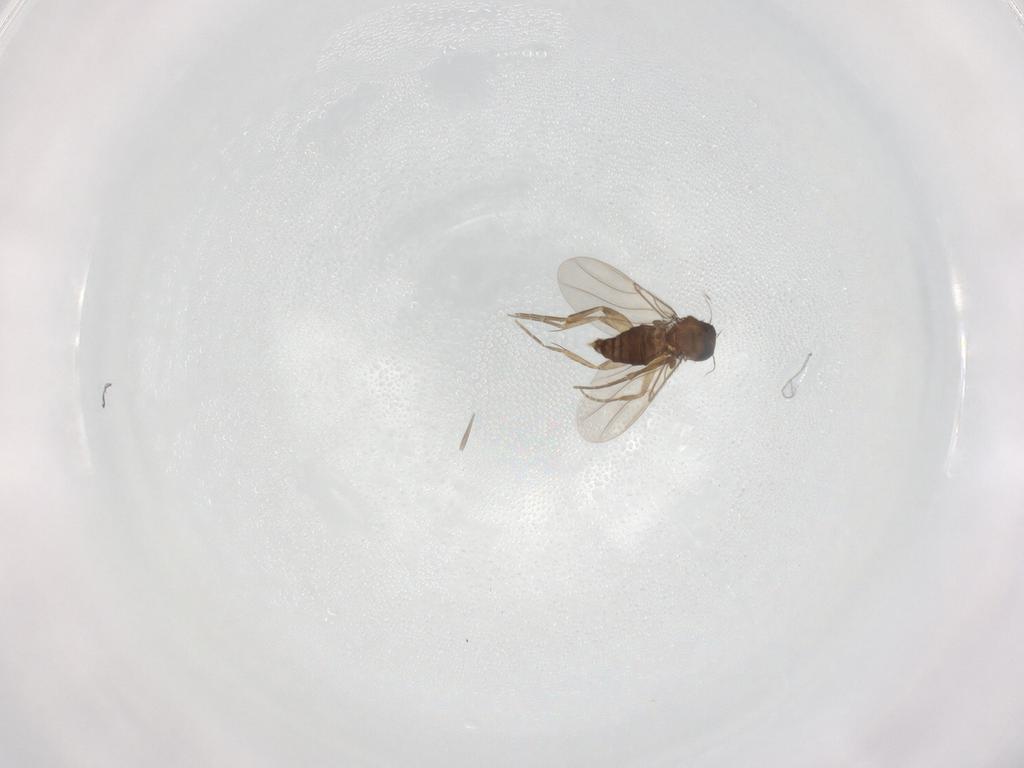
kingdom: Animalia
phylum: Arthropoda
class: Insecta
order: Diptera
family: Phoridae
